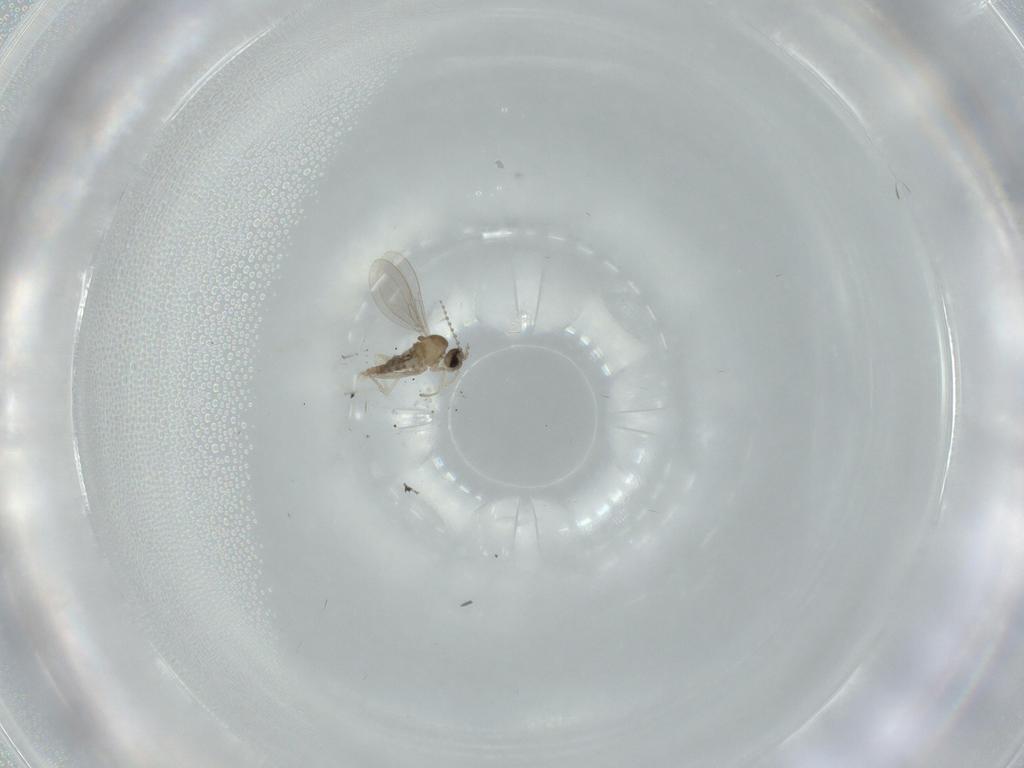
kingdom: Animalia
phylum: Arthropoda
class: Insecta
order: Diptera
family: Cecidomyiidae
